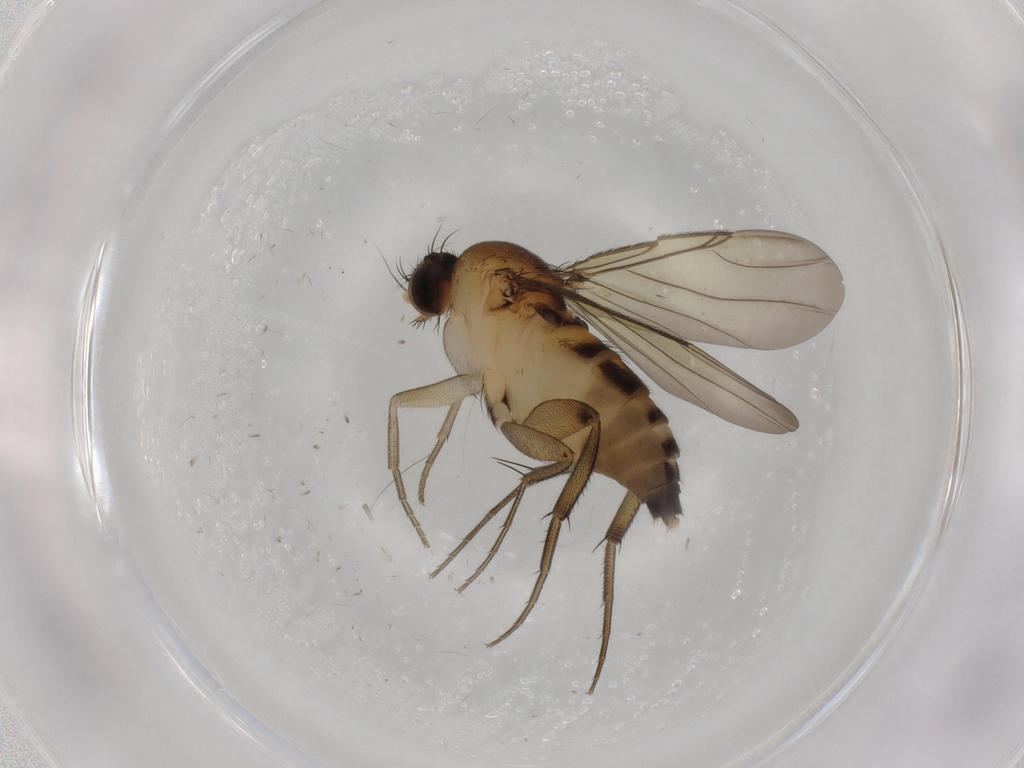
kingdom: Animalia
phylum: Arthropoda
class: Insecta
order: Diptera
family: Phoridae
